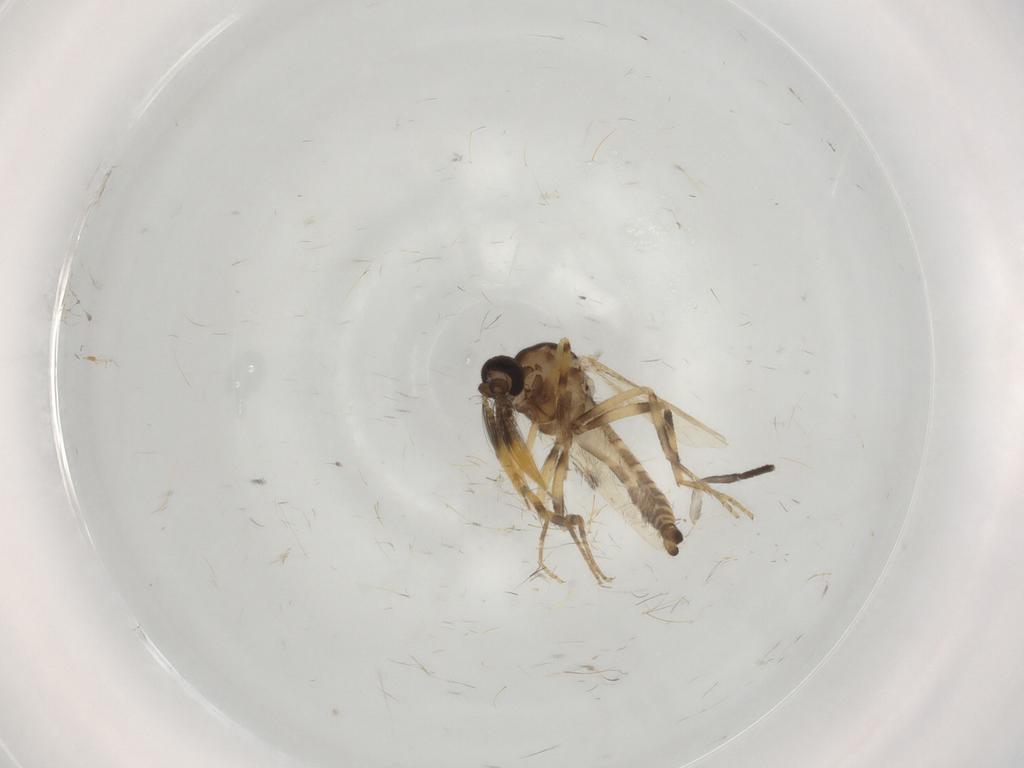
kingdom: Animalia
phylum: Arthropoda
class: Insecta
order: Diptera
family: Ceratopogonidae
